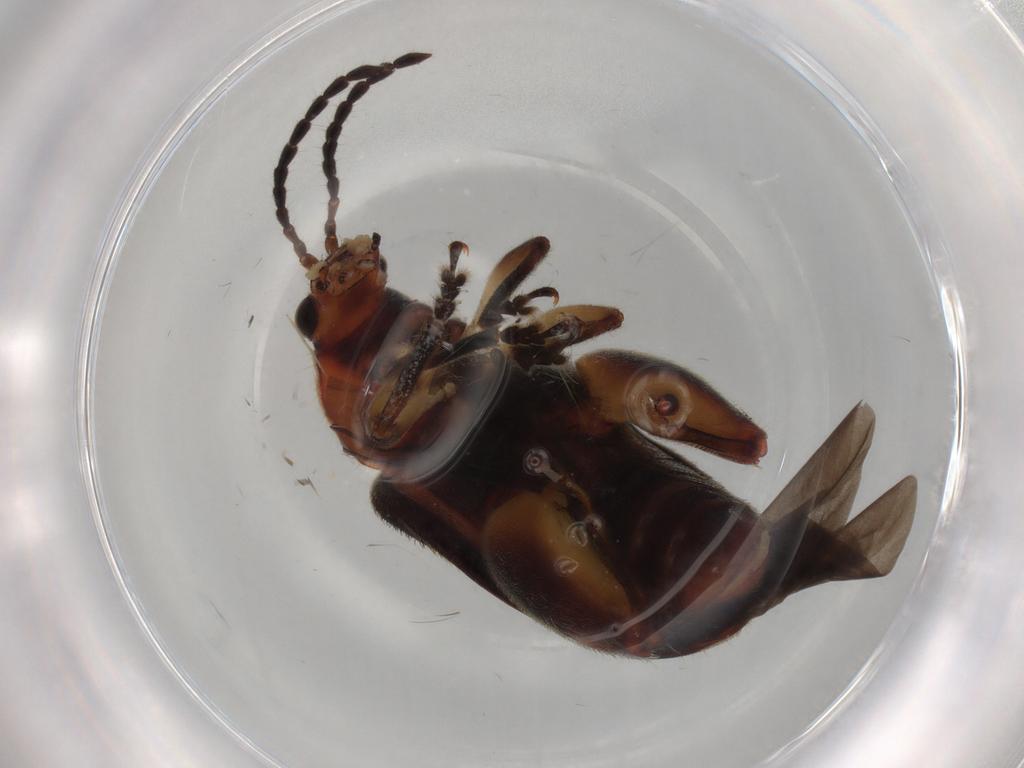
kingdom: Animalia
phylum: Arthropoda
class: Insecta
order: Coleoptera
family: Chrysomelidae
